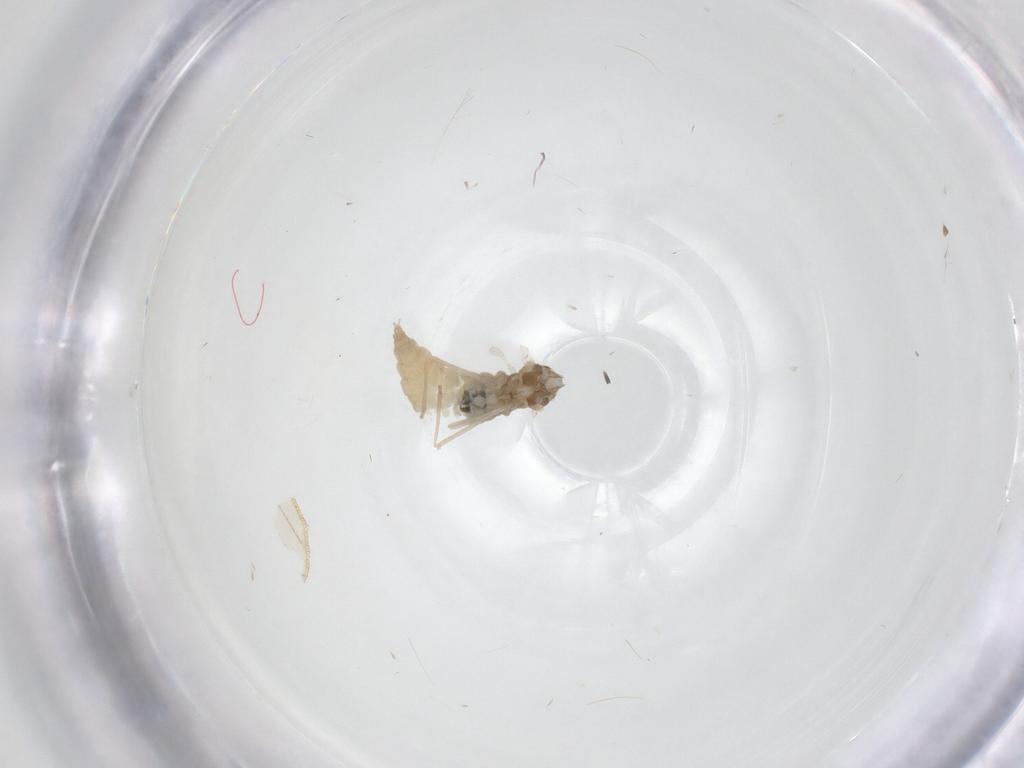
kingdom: Animalia
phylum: Arthropoda
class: Insecta
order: Diptera
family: Cecidomyiidae
